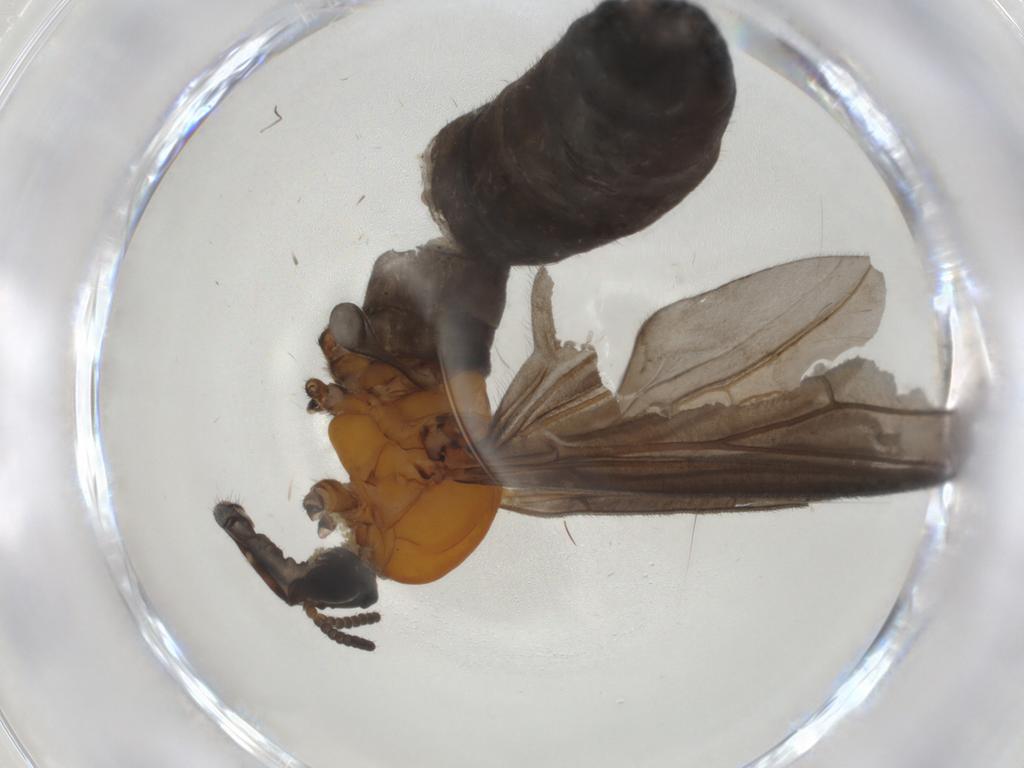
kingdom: Animalia
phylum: Arthropoda
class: Insecta
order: Diptera
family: Bibionidae
